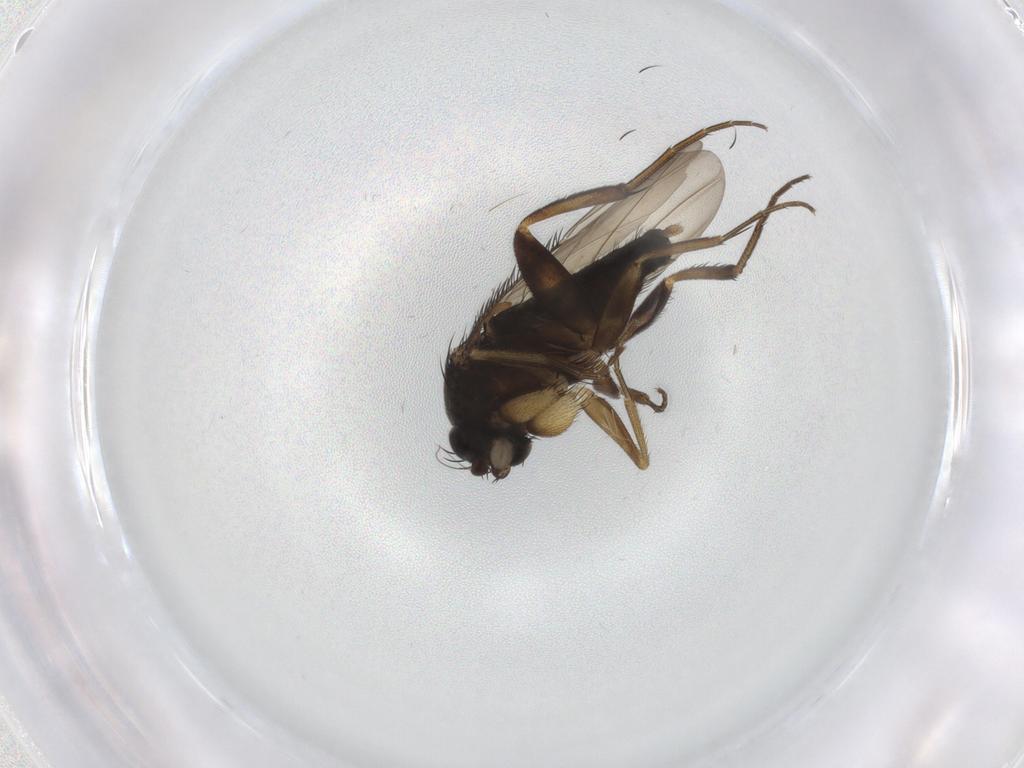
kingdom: Animalia
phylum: Arthropoda
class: Insecta
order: Diptera
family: Phoridae
